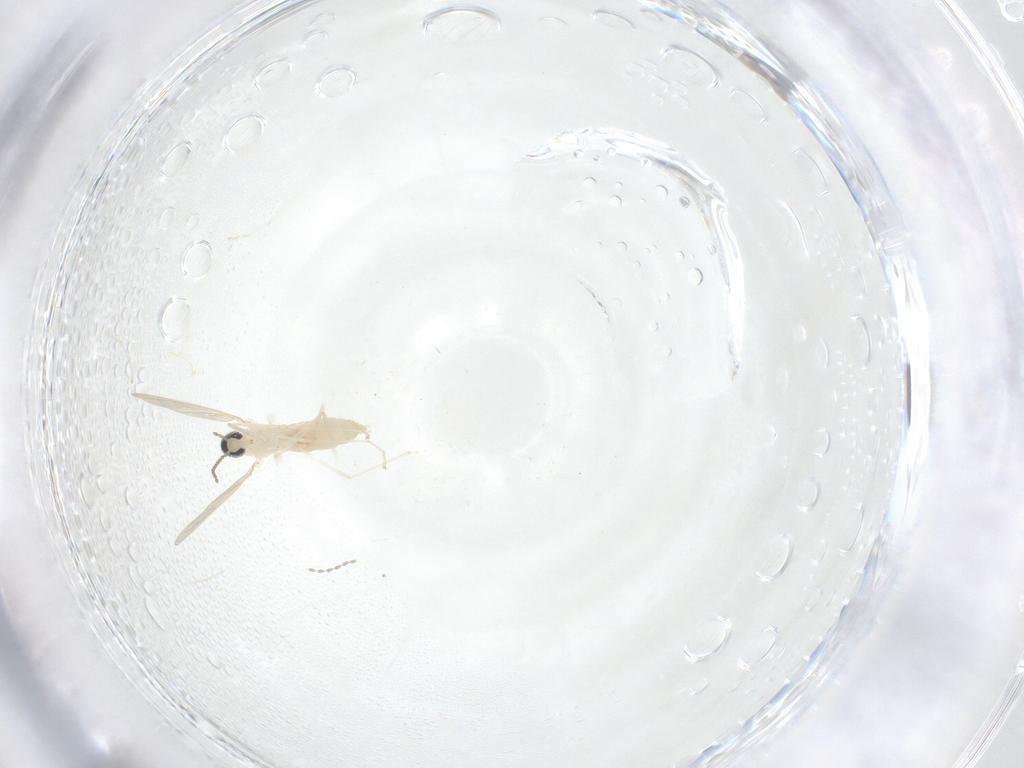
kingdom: Animalia
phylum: Arthropoda
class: Insecta
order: Diptera
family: Cecidomyiidae
